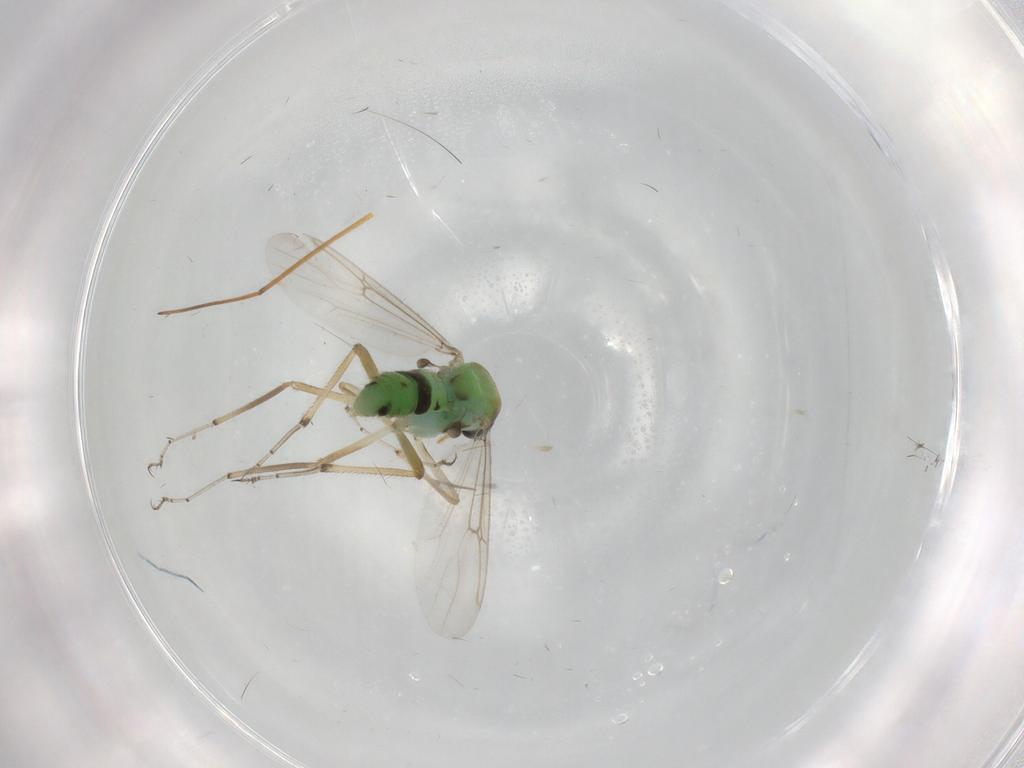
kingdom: Animalia
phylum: Arthropoda
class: Insecta
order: Diptera
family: Ceratopogonidae
